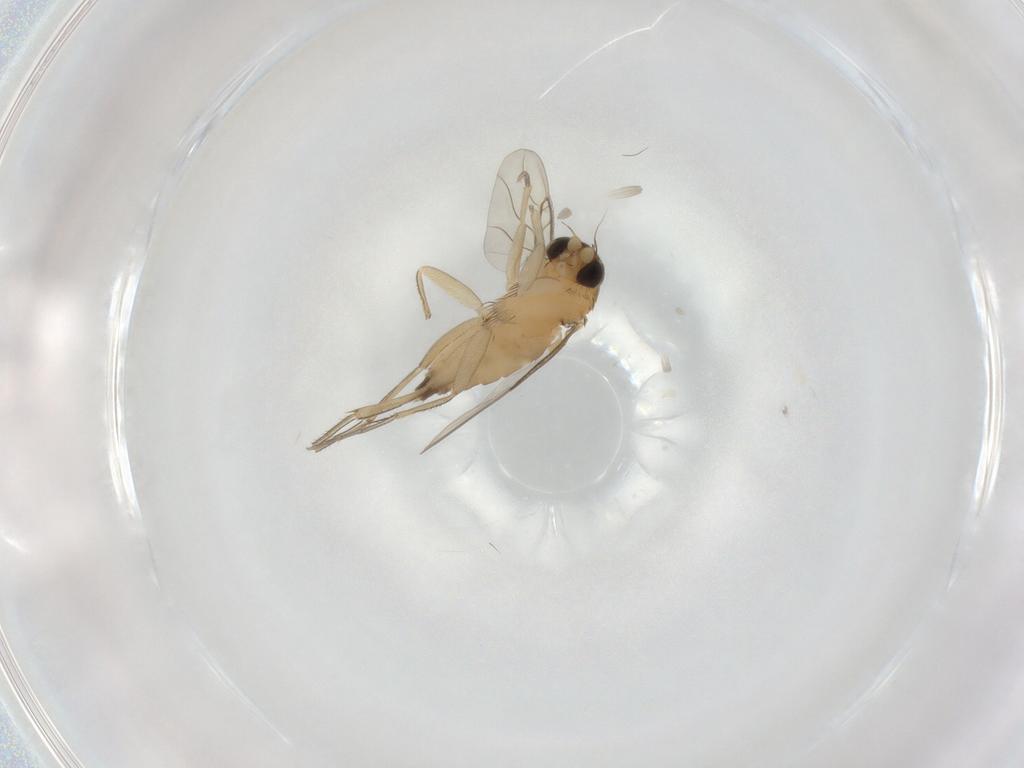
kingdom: Animalia
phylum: Arthropoda
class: Insecta
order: Diptera
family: Phoridae
